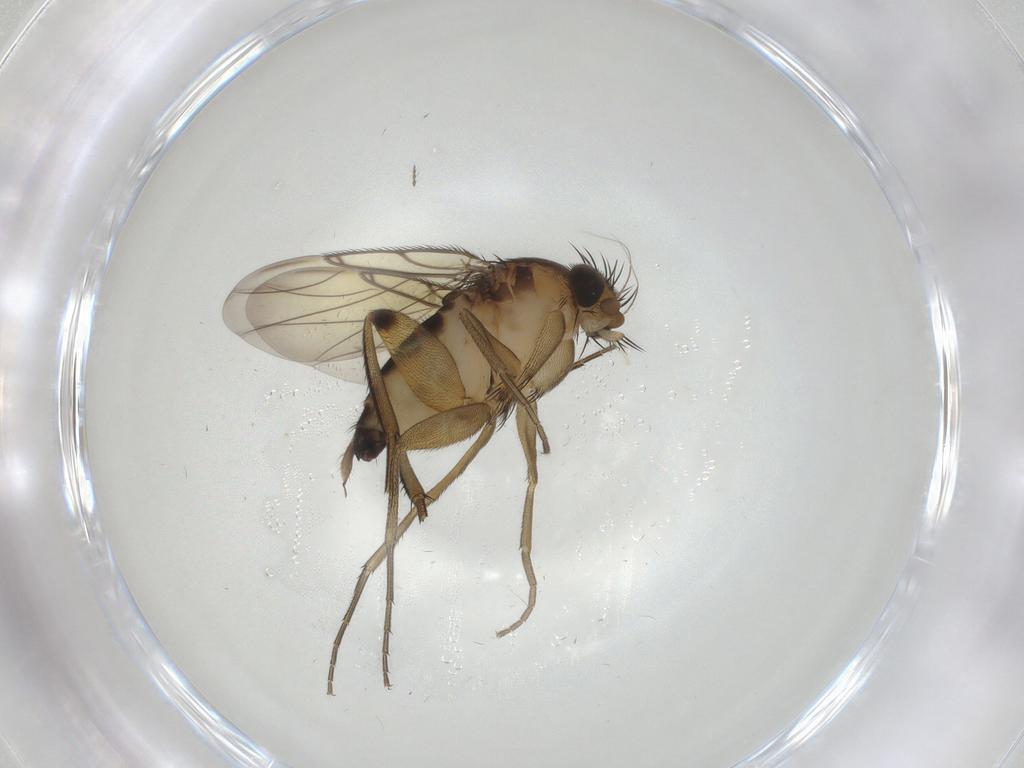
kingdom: Animalia
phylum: Arthropoda
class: Insecta
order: Diptera
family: Phoridae
